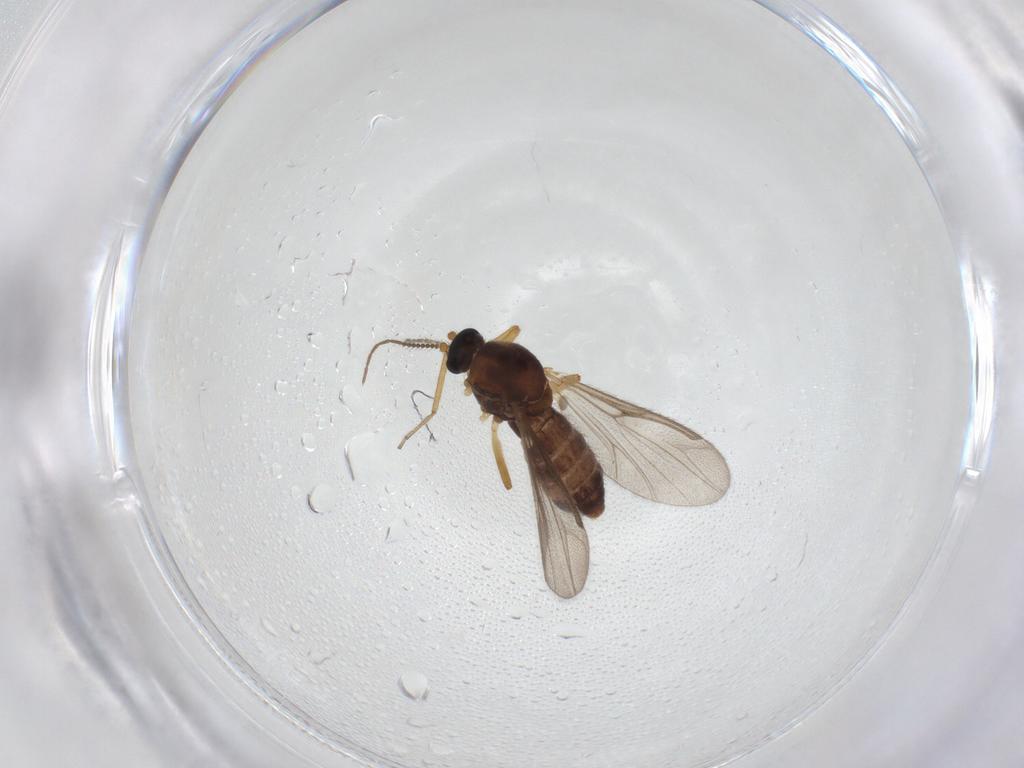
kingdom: Animalia
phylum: Arthropoda
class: Insecta
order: Diptera
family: Ceratopogonidae
